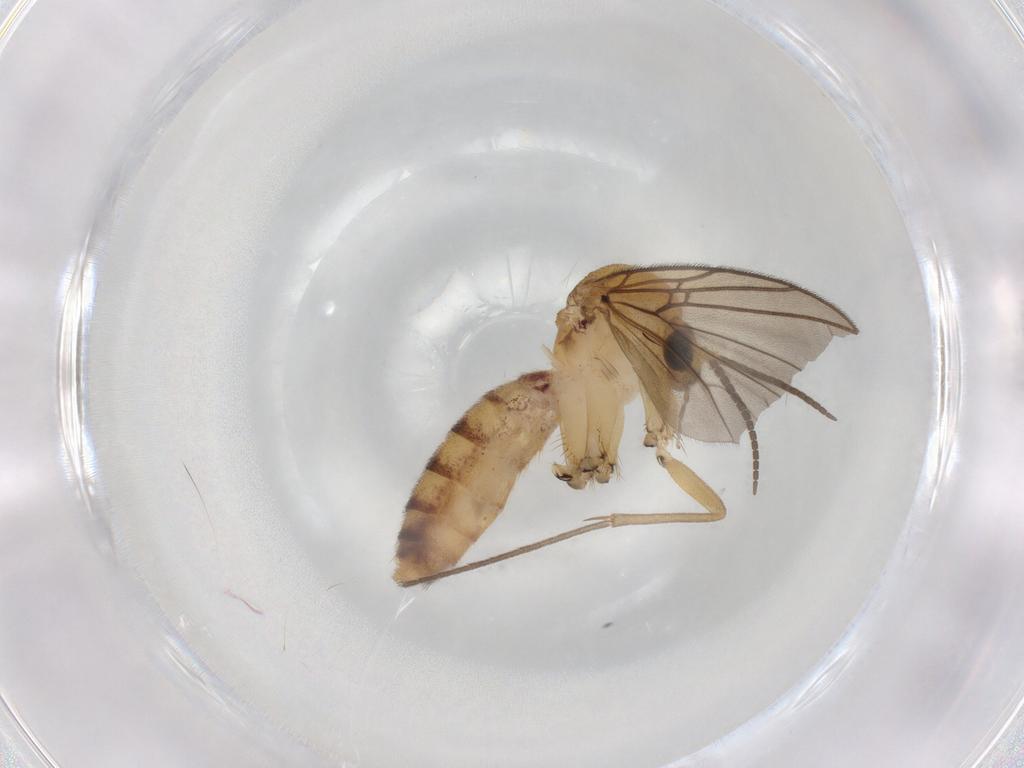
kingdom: Animalia
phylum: Arthropoda
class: Insecta
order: Diptera
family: Mycetophilidae
